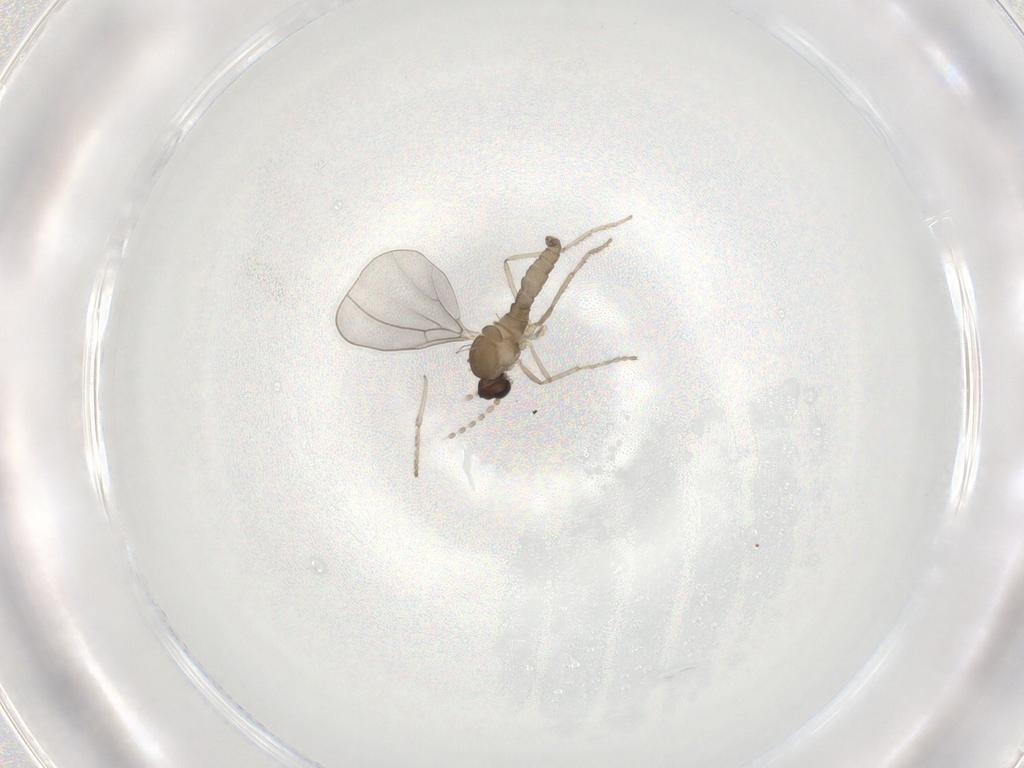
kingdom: Animalia
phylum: Arthropoda
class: Insecta
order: Diptera
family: Cecidomyiidae
